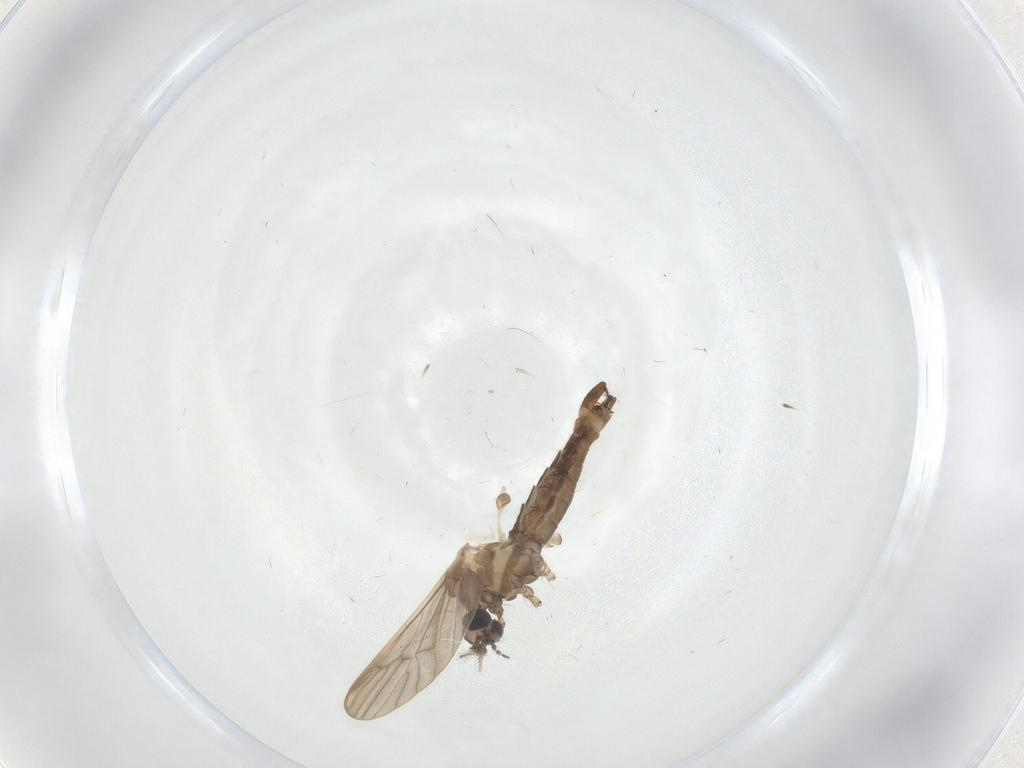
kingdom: Animalia
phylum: Arthropoda
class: Insecta
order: Diptera
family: Limoniidae
